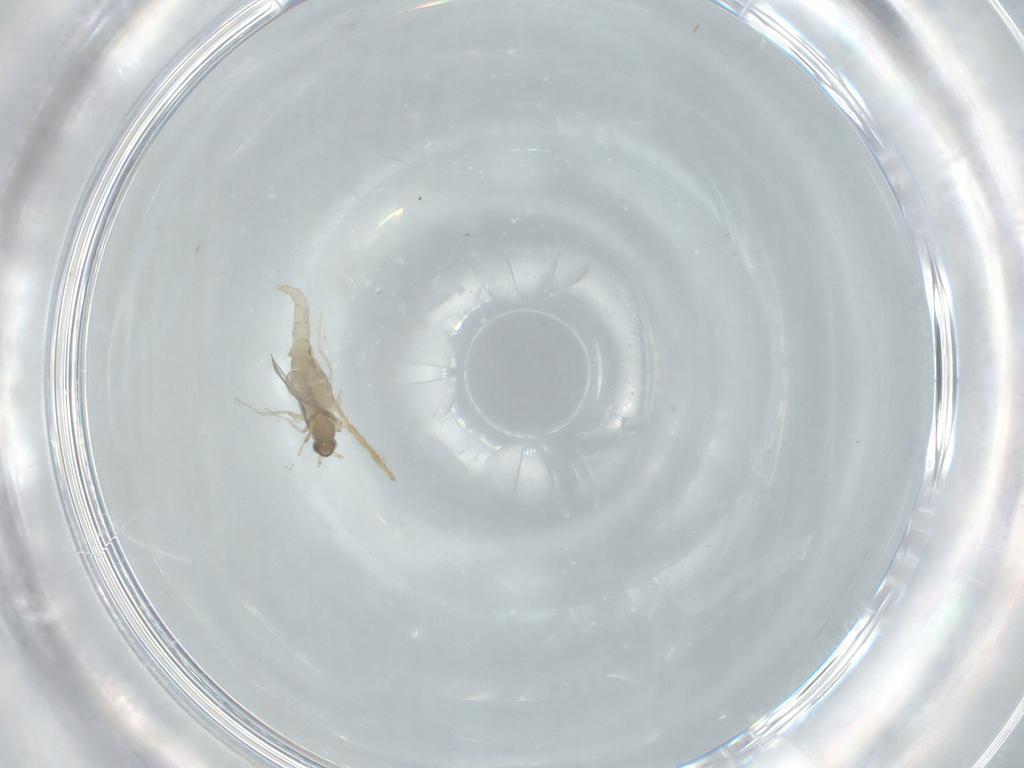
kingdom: Animalia
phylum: Arthropoda
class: Insecta
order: Diptera
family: Cecidomyiidae
